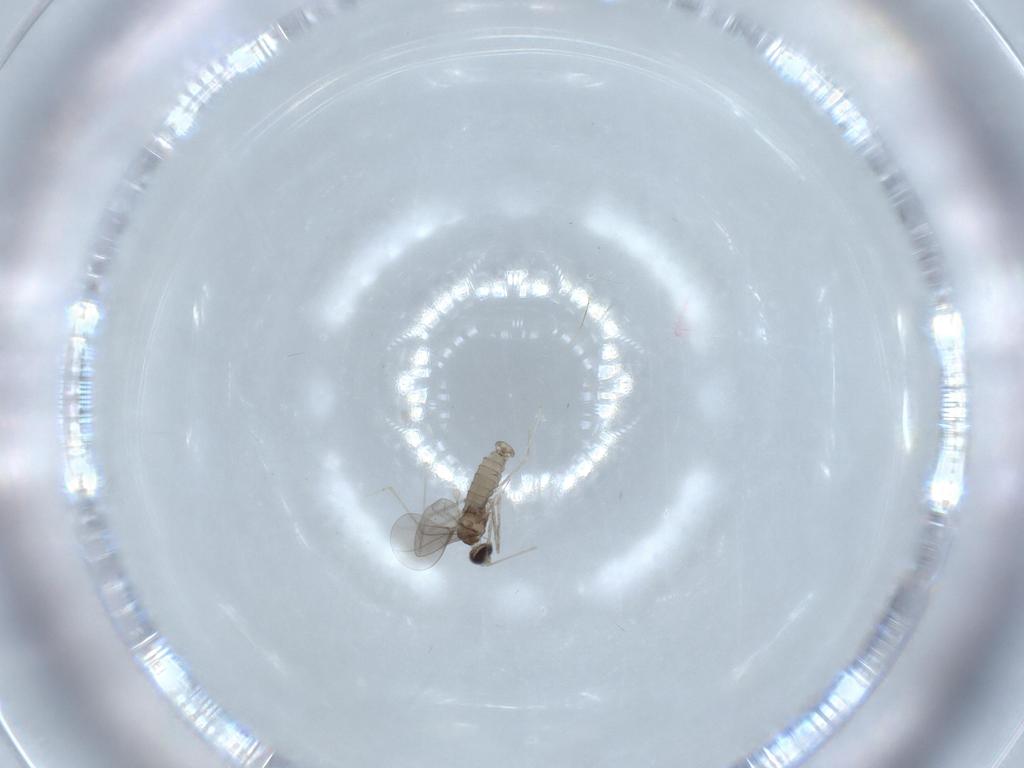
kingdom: Animalia
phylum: Arthropoda
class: Insecta
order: Diptera
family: Cecidomyiidae
